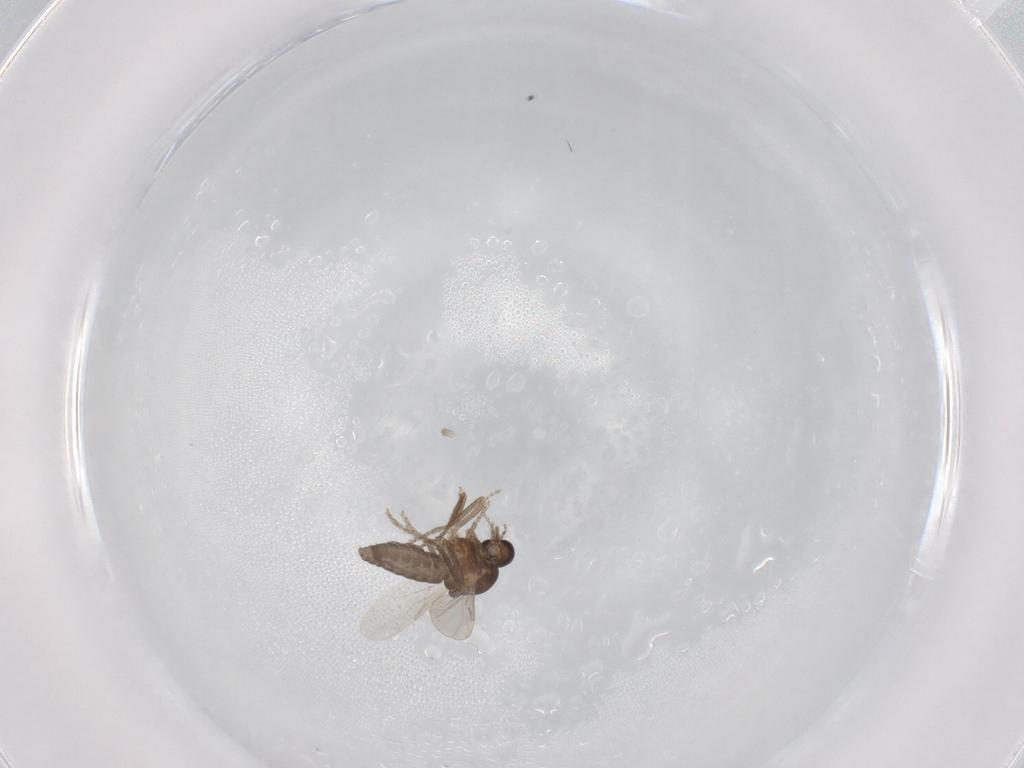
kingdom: Animalia
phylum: Arthropoda
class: Insecta
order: Diptera
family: Ceratopogonidae
